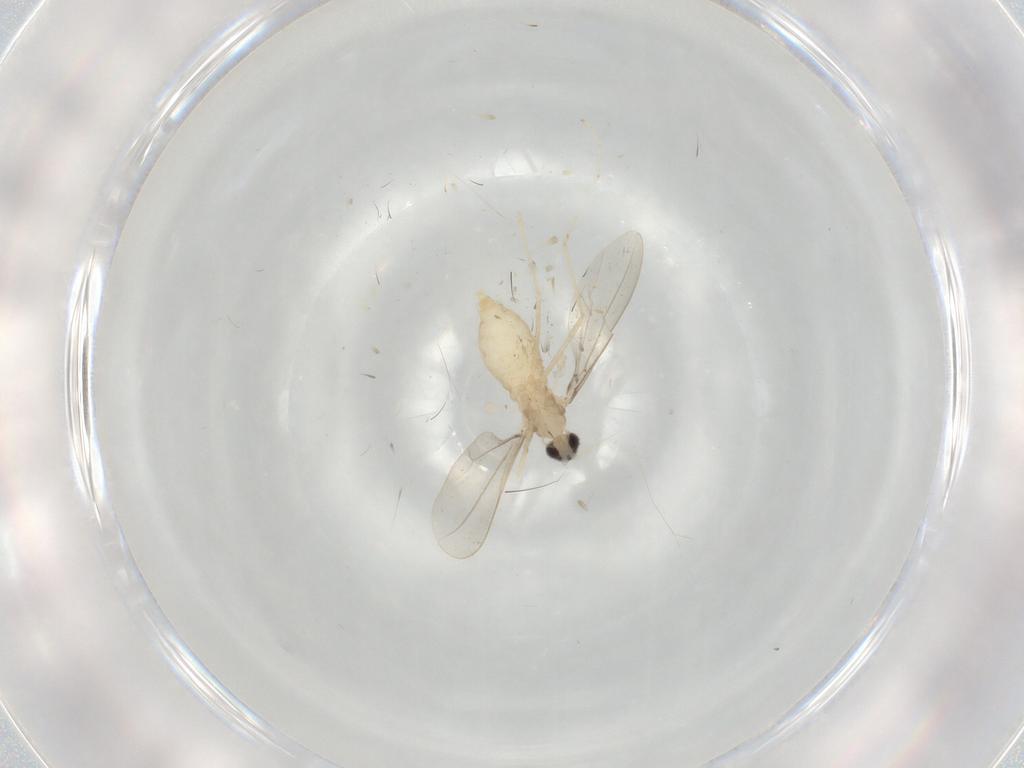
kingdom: Animalia
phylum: Arthropoda
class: Insecta
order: Diptera
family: Cecidomyiidae
